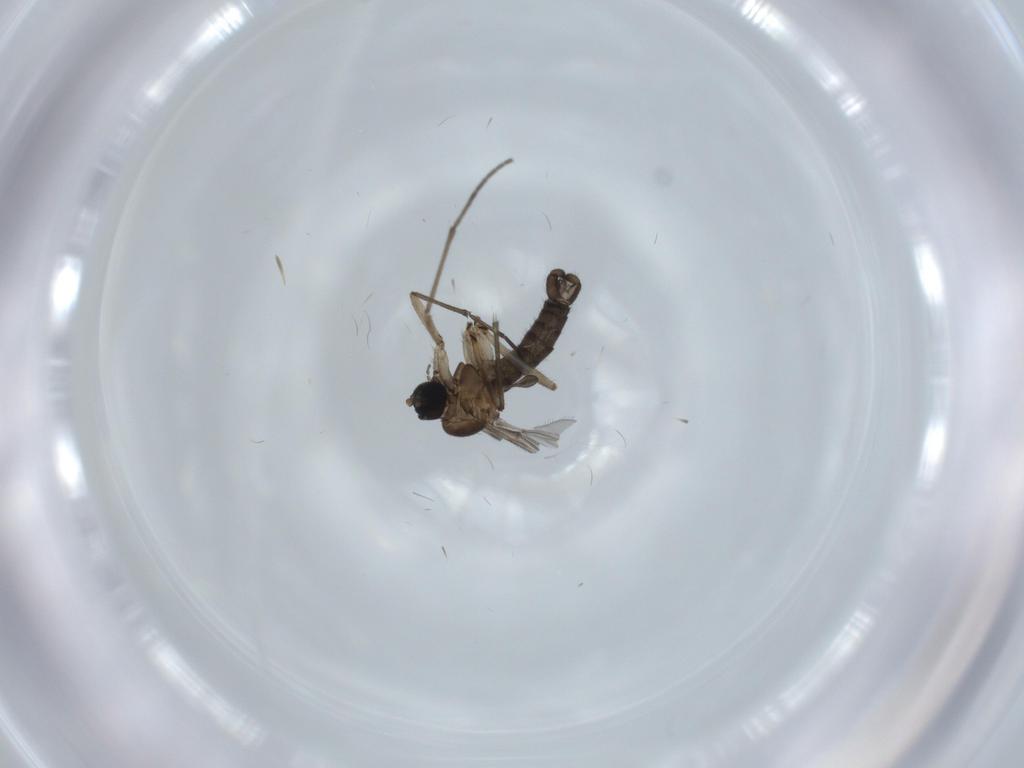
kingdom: Animalia
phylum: Arthropoda
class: Insecta
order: Diptera
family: Sciaridae
